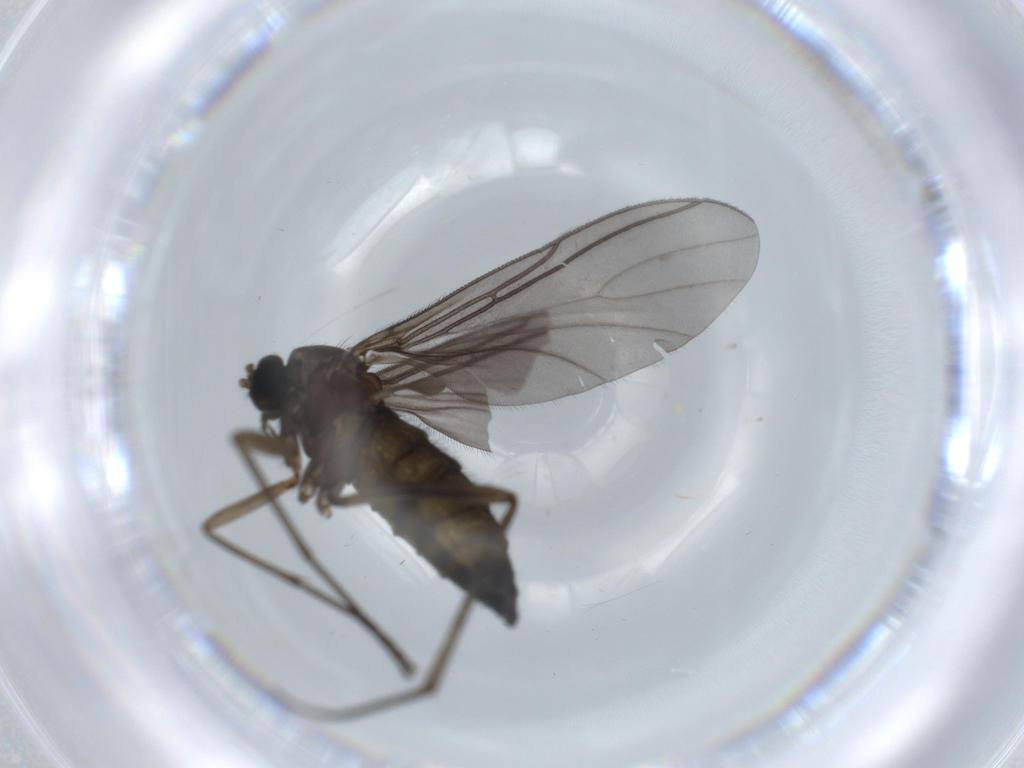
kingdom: Animalia
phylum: Arthropoda
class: Insecta
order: Diptera
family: Sciaridae
